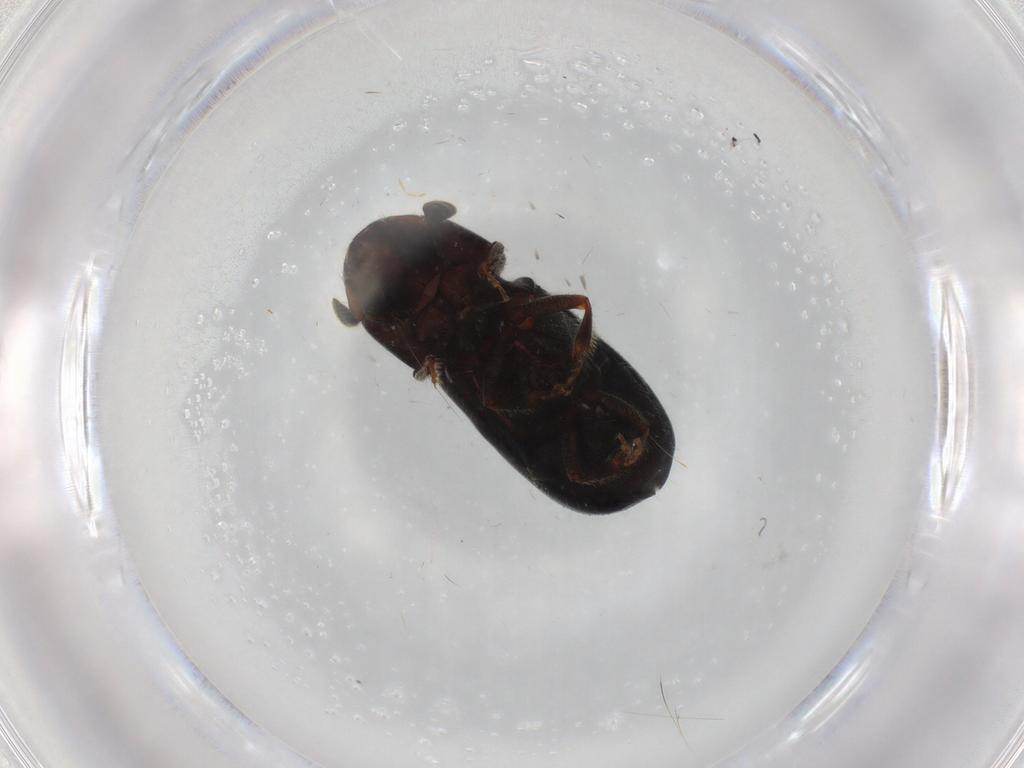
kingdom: Animalia
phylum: Arthropoda
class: Insecta
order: Coleoptera
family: Curculionidae
